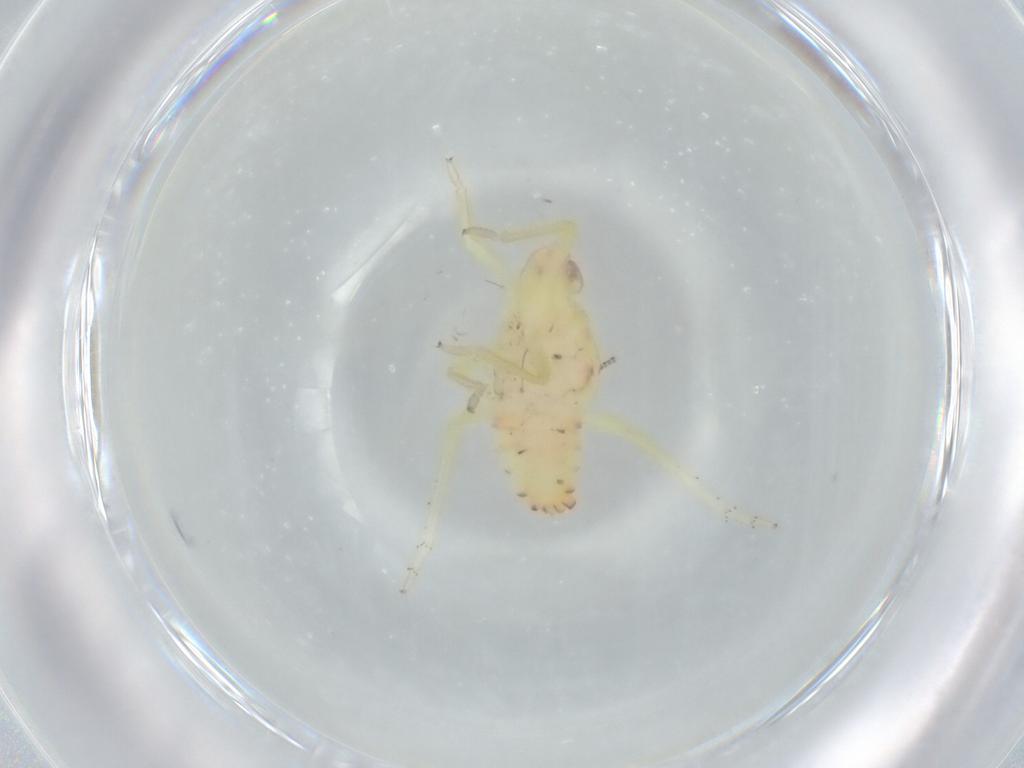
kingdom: Animalia
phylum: Arthropoda
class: Insecta
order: Hemiptera
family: Tropiduchidae
